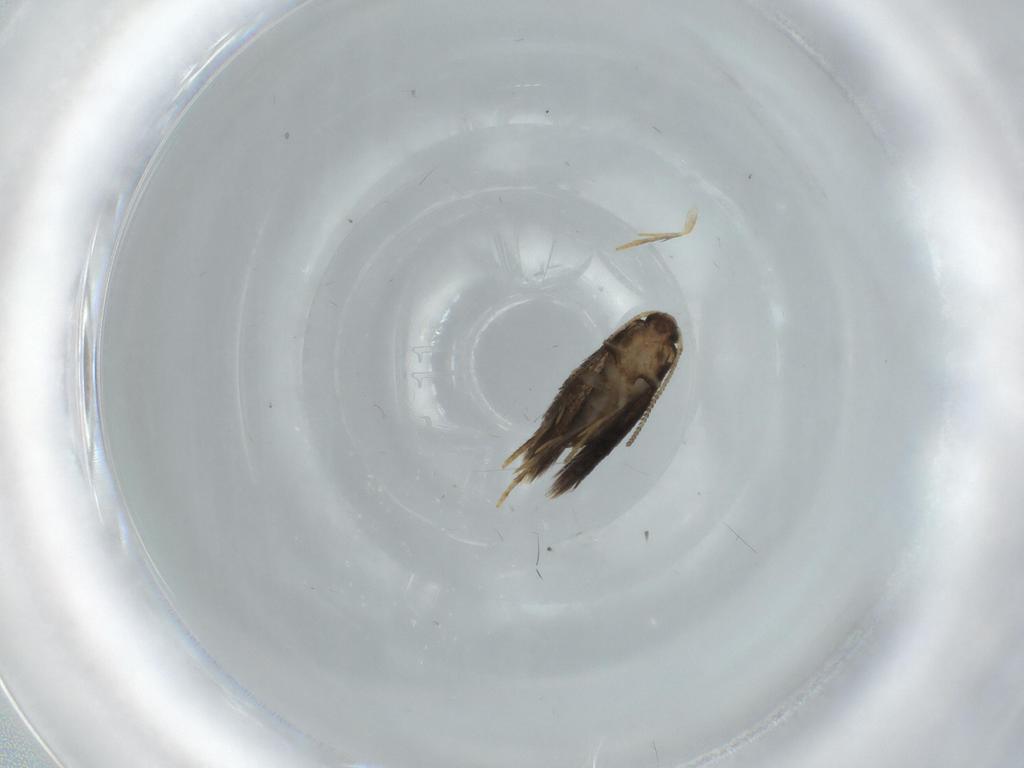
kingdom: Animalia
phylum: Arthropoda
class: Insecta
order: Lepidoptera
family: Nepticulidae
